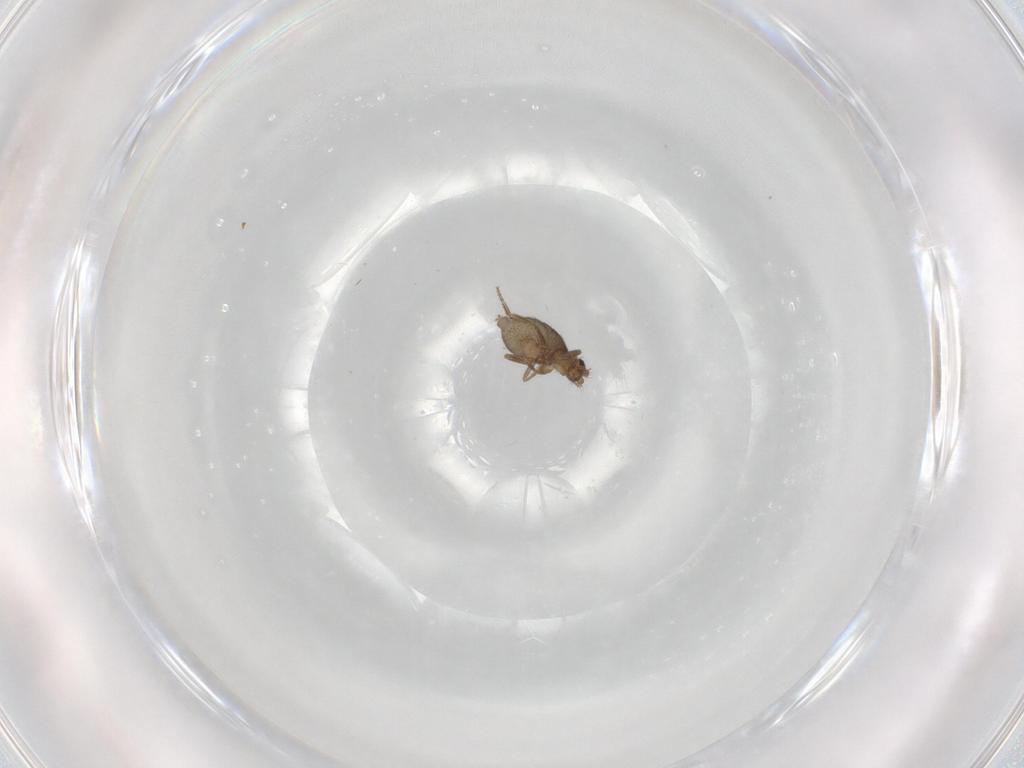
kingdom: Animalia
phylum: Arthropoda
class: Insecta
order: Diptera
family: Phoridae
